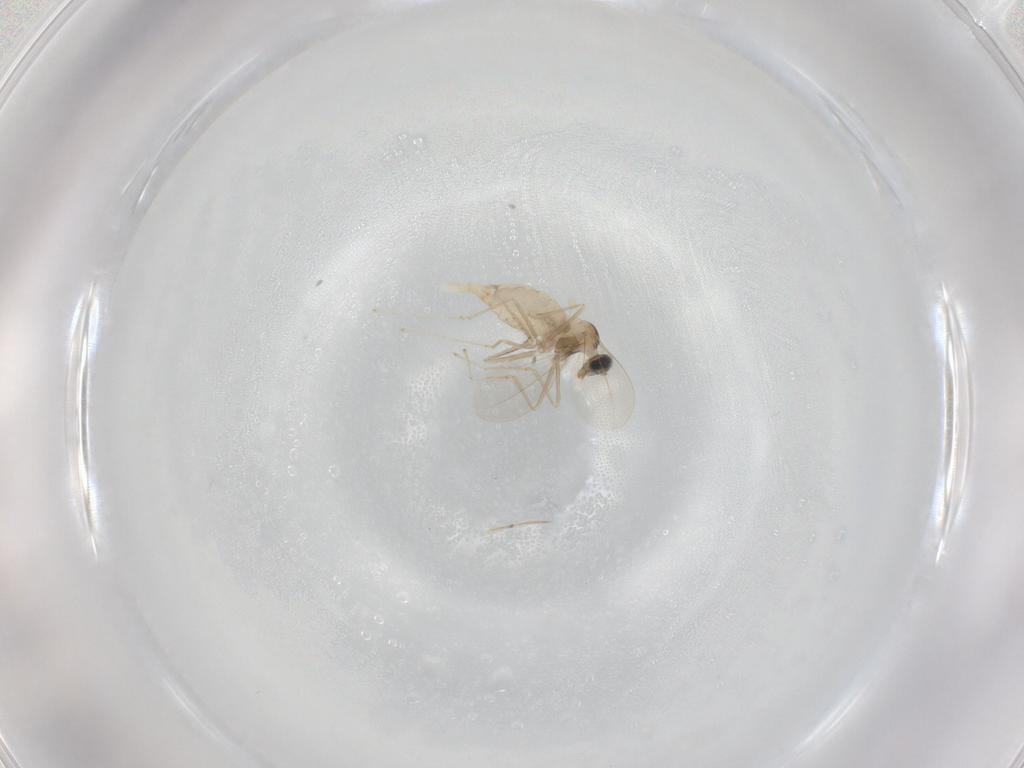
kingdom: Animalia
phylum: Arthropoda
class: Insecta
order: Diptera
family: Cecidomyiidae
